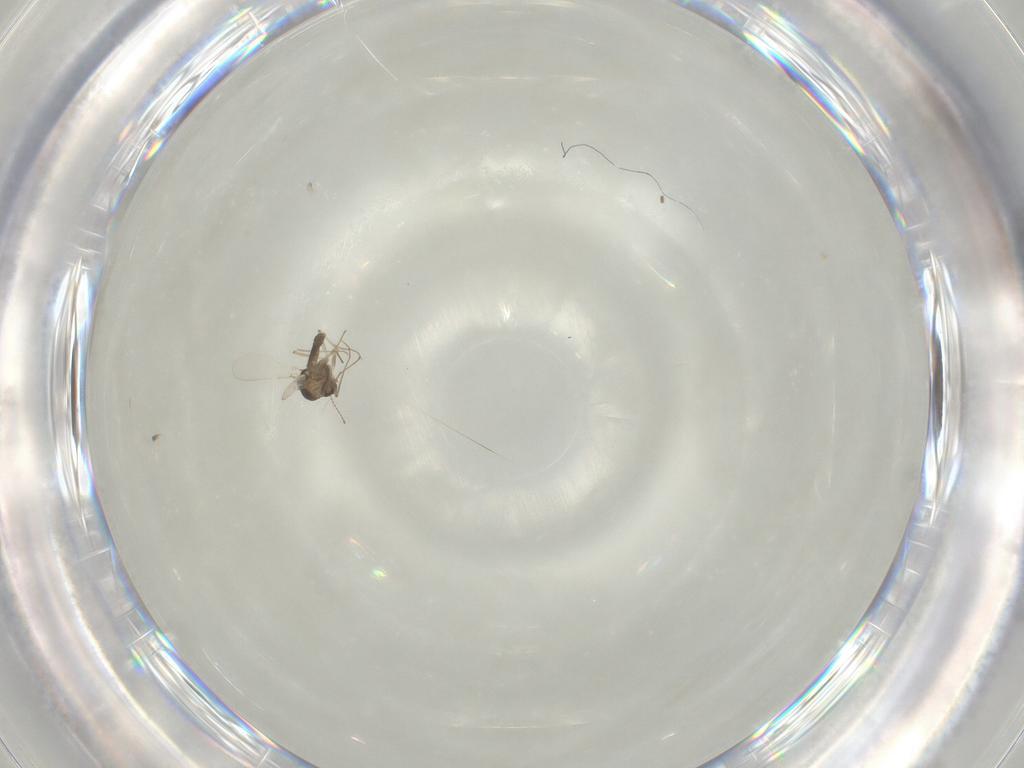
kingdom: Animalia
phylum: Arthropoda
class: Insecta
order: Diptera
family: Chironomidae
